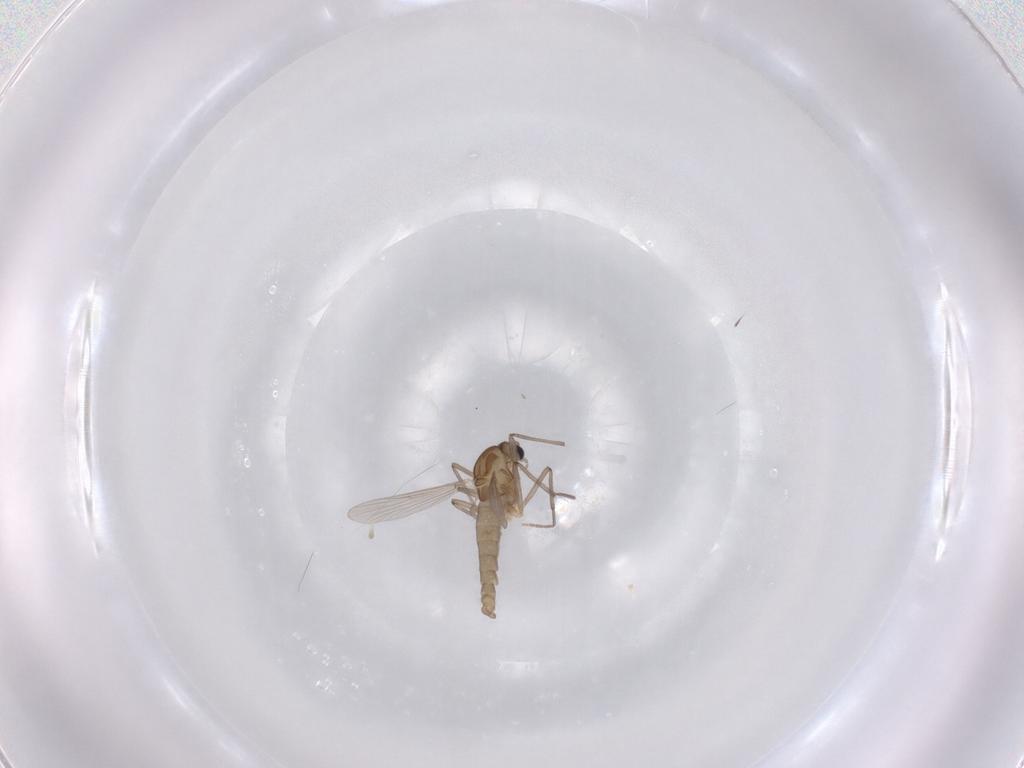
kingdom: Animalia
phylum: Arthropoda
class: Insecta
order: Diptera
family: Chironomidae
